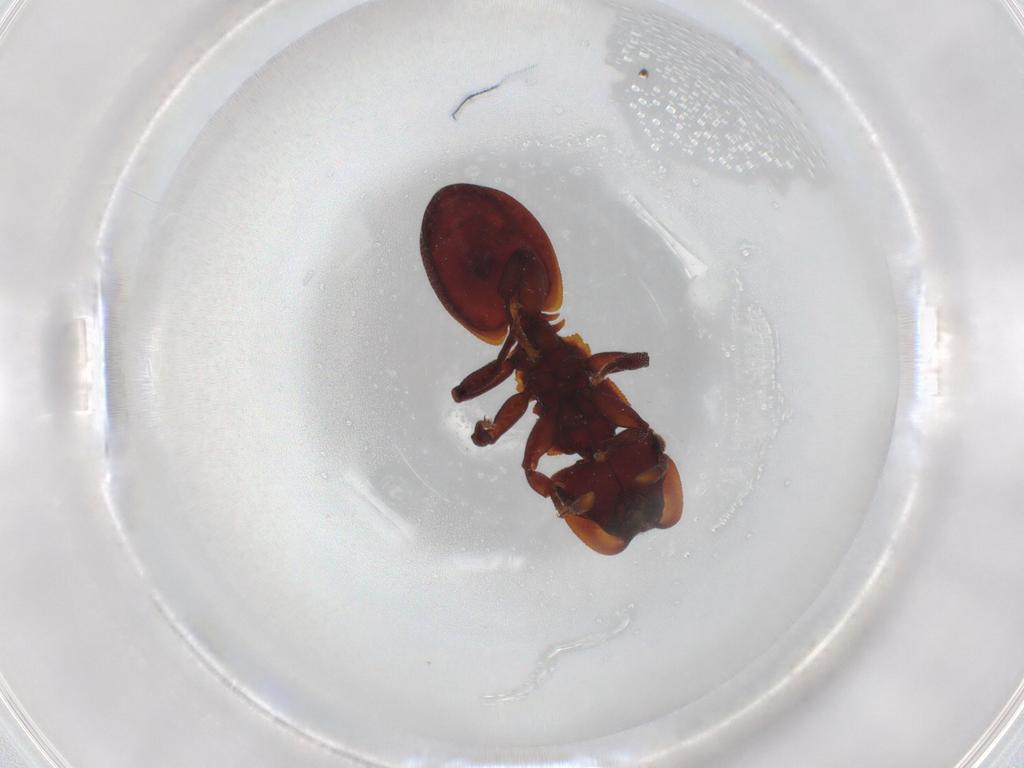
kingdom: Animalia
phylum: Arthropoda
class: Insecta
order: Hymenoptera
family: Formicidae
